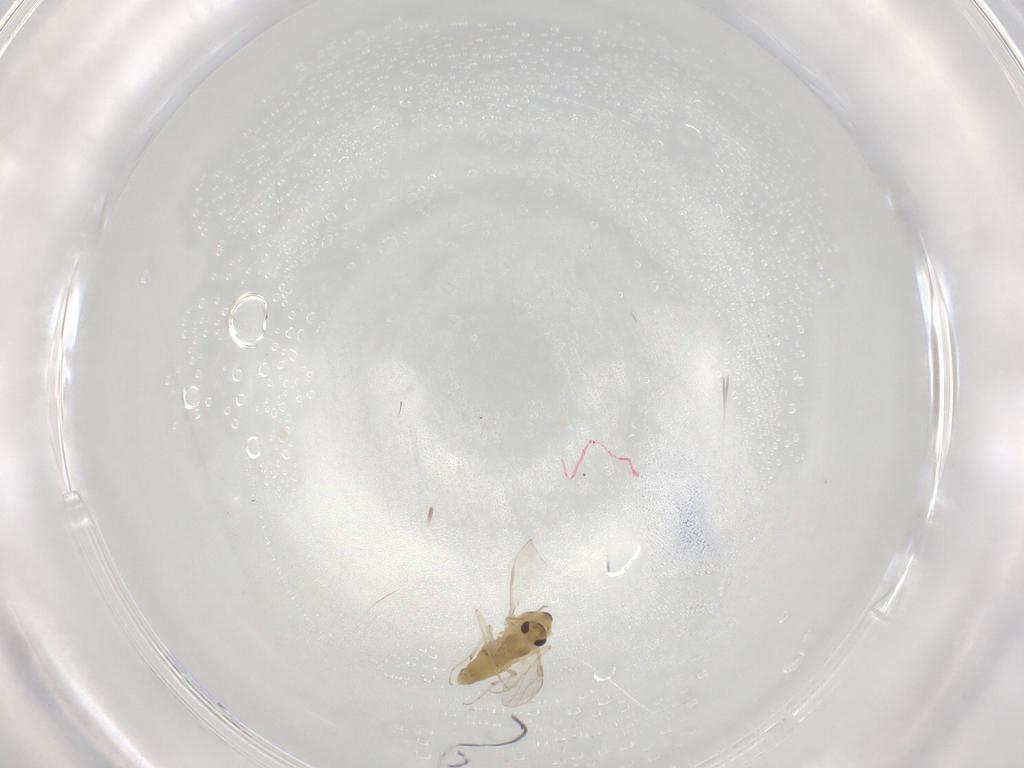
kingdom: Animalia
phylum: Arthropoda
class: Insecta
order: Diptera
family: Chironomidae
